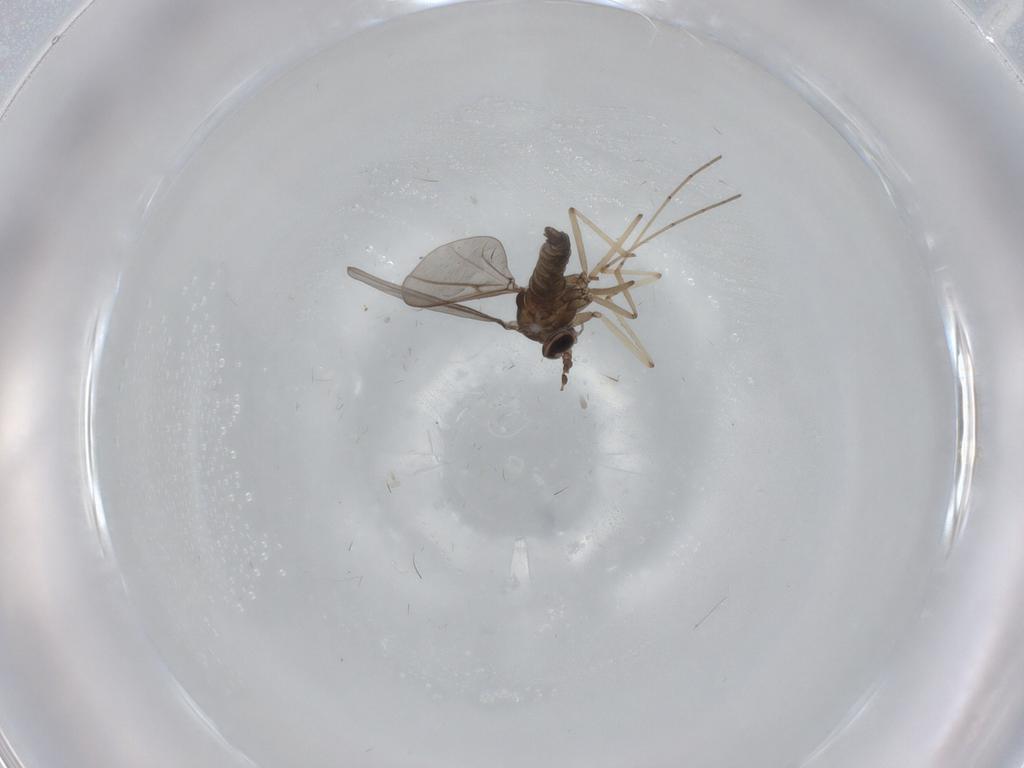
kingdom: Animalia
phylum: Arthropoda
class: Insecta
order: Diptera
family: Cecidomyiidae
